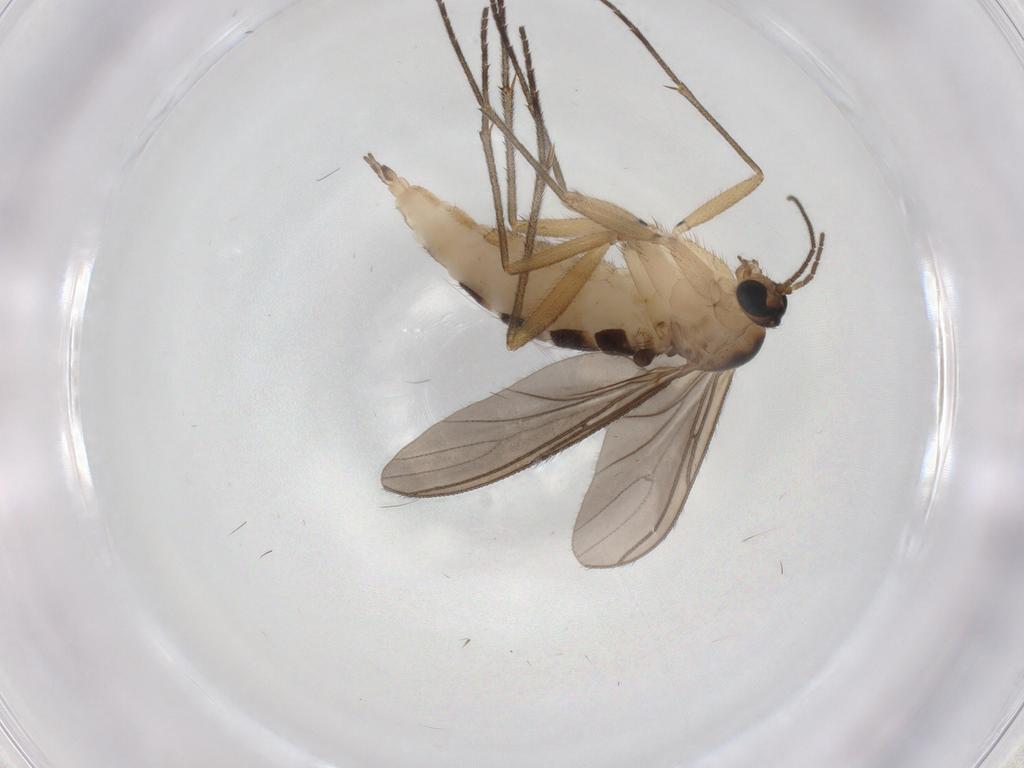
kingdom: Animalia
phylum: Arthropoda
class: Insecta
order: Diptera
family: Sciaridae
